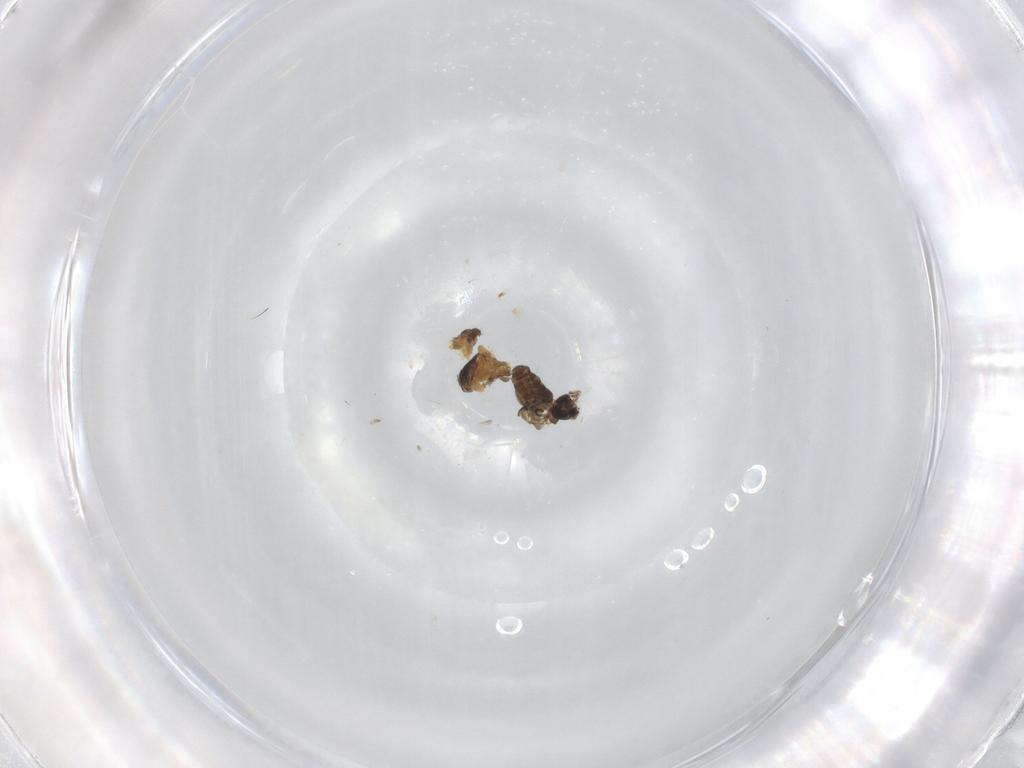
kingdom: Animalia
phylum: Arthropoda
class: Insecta
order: Diptera
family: Ceratopogonidae
